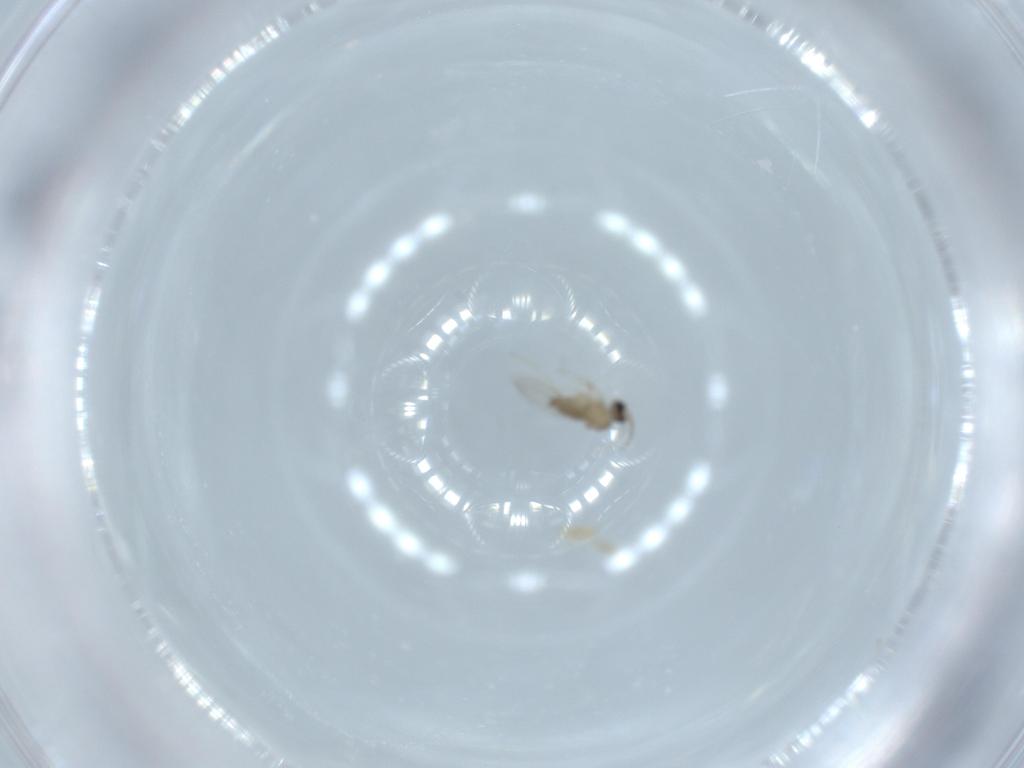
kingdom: Animalia
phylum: Arthropoda
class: Insecta
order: Diptera
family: Cecidomyiidae
